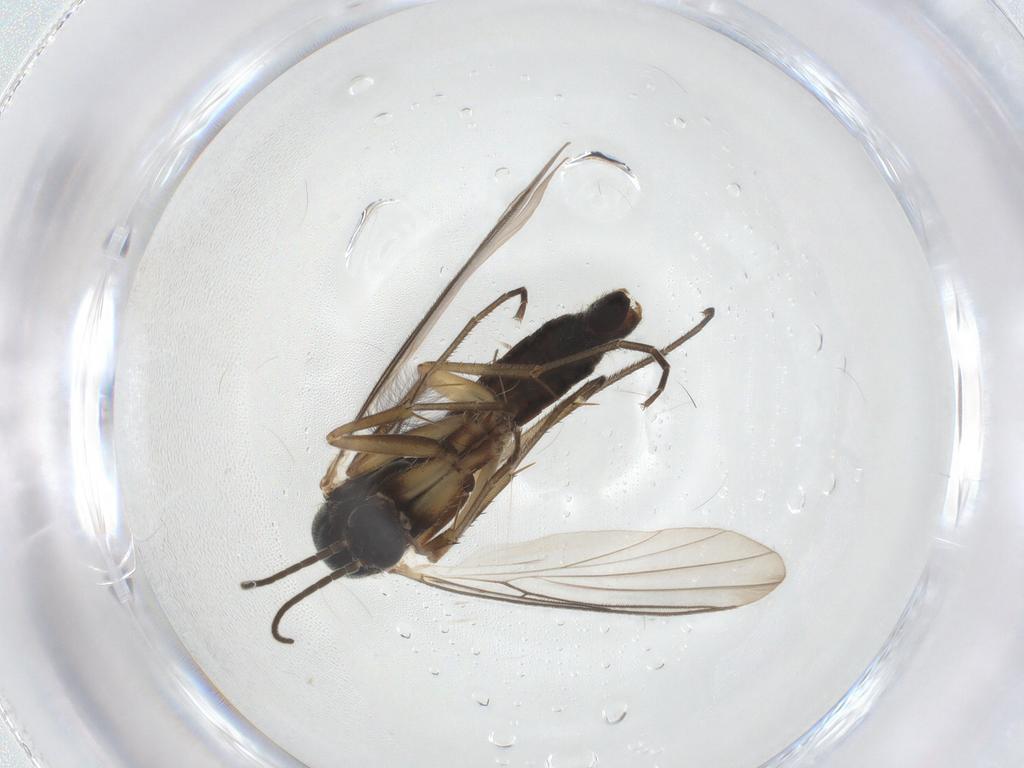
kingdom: Animalia
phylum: Arthropoda
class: Insecta
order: Diptera
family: Mycetophilidae
